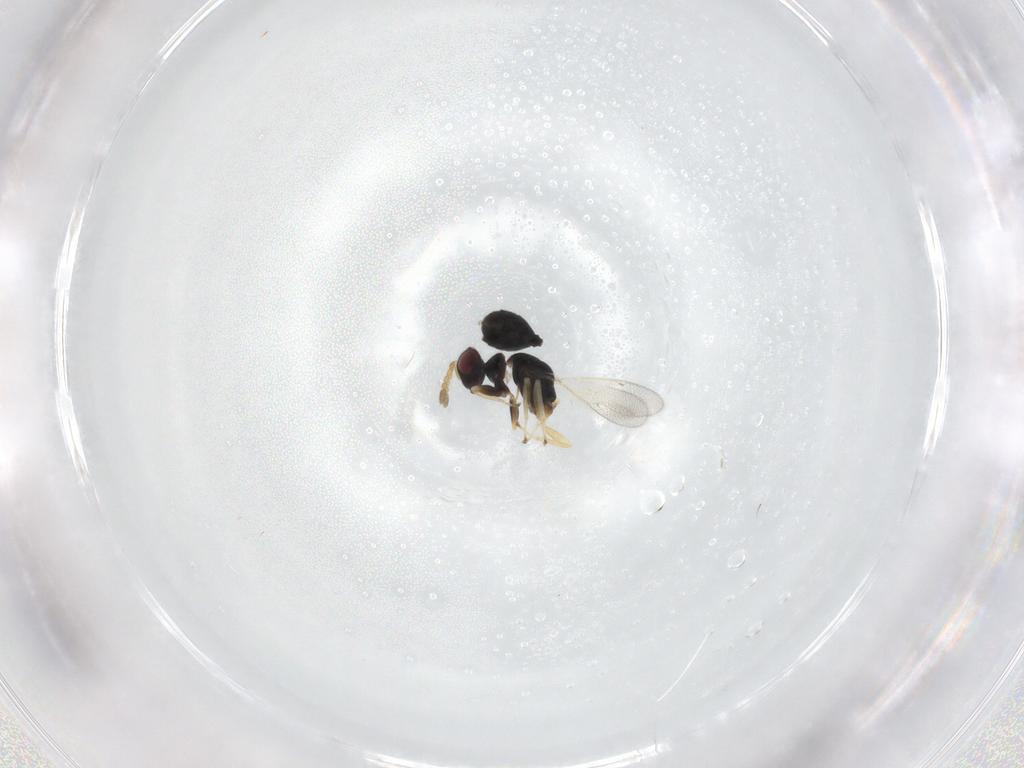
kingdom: Animalia
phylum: Arthropoda
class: Insecta
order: Hymenoptera
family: Eulophidae
